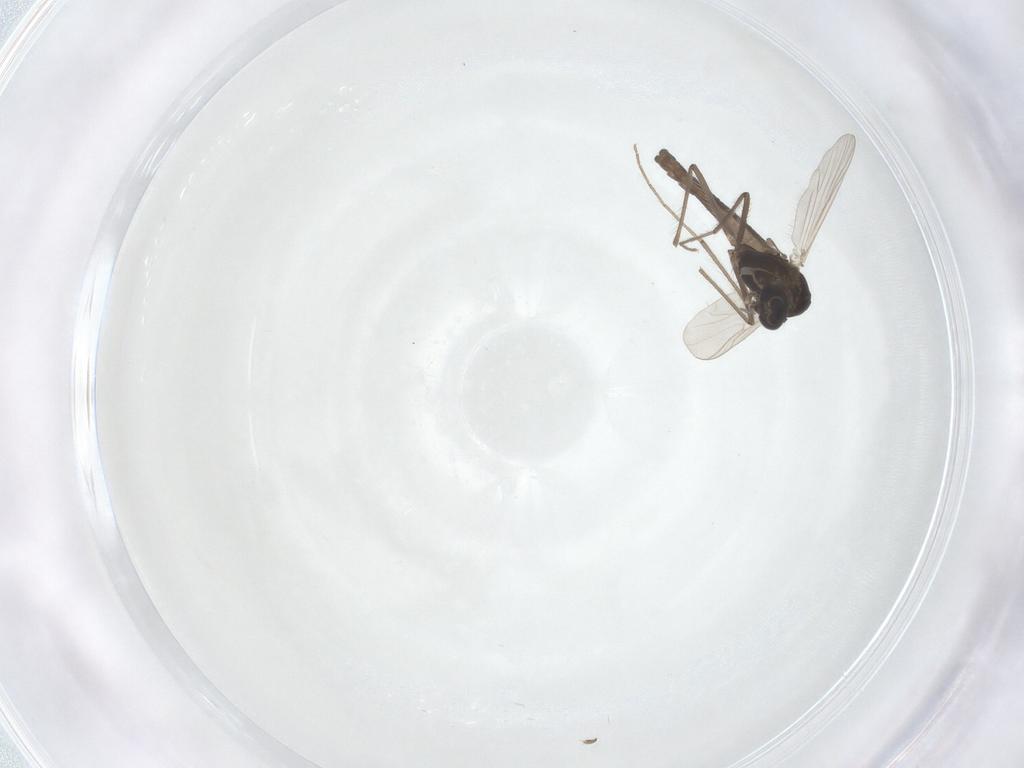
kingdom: Animalia
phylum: Arthropoda
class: Insecta
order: Diptera
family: Chironomidae
